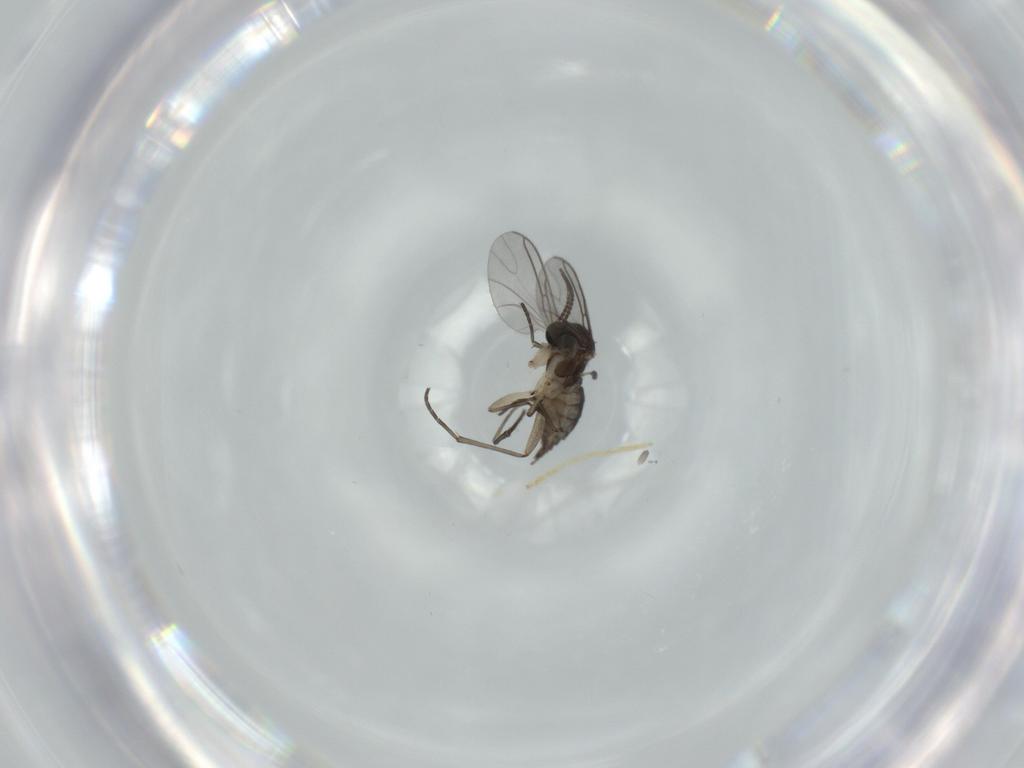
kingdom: Animalia
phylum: Arthropoda
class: Insecta
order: Diptera
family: Sciaridae
